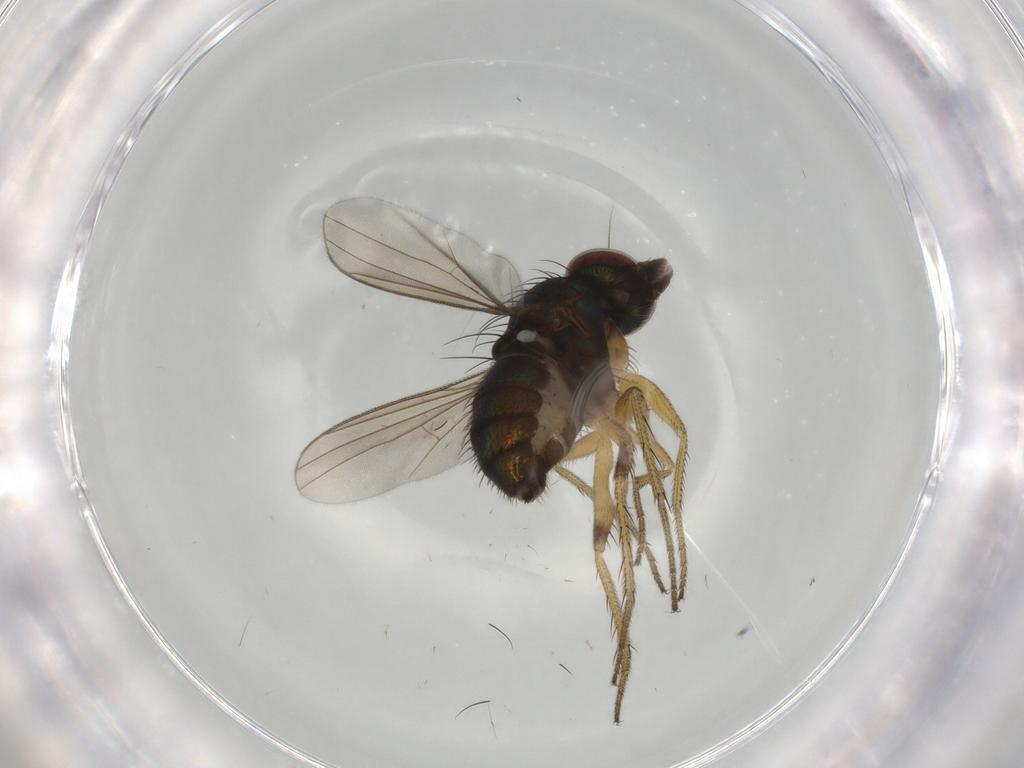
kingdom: Animalia
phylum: Arthropoda
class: Insecta
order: Diptera
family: Dolichopodidae
